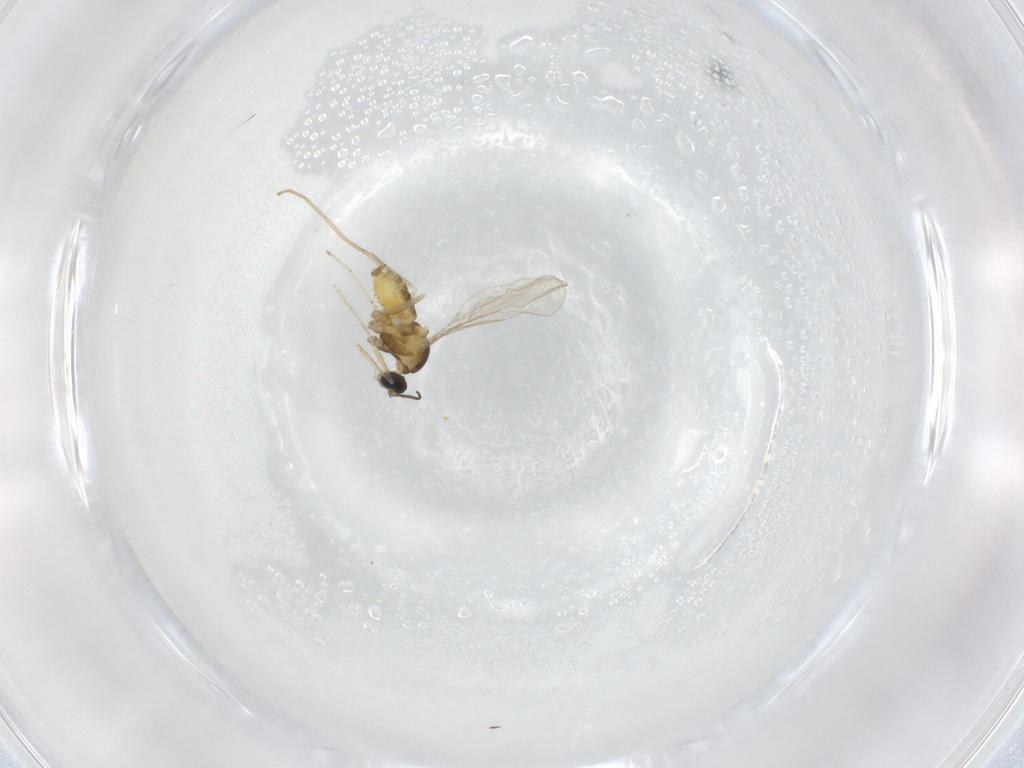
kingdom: Animalia
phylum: Arthropoda
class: Insecta
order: Diptera
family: Cecidomyiidae
